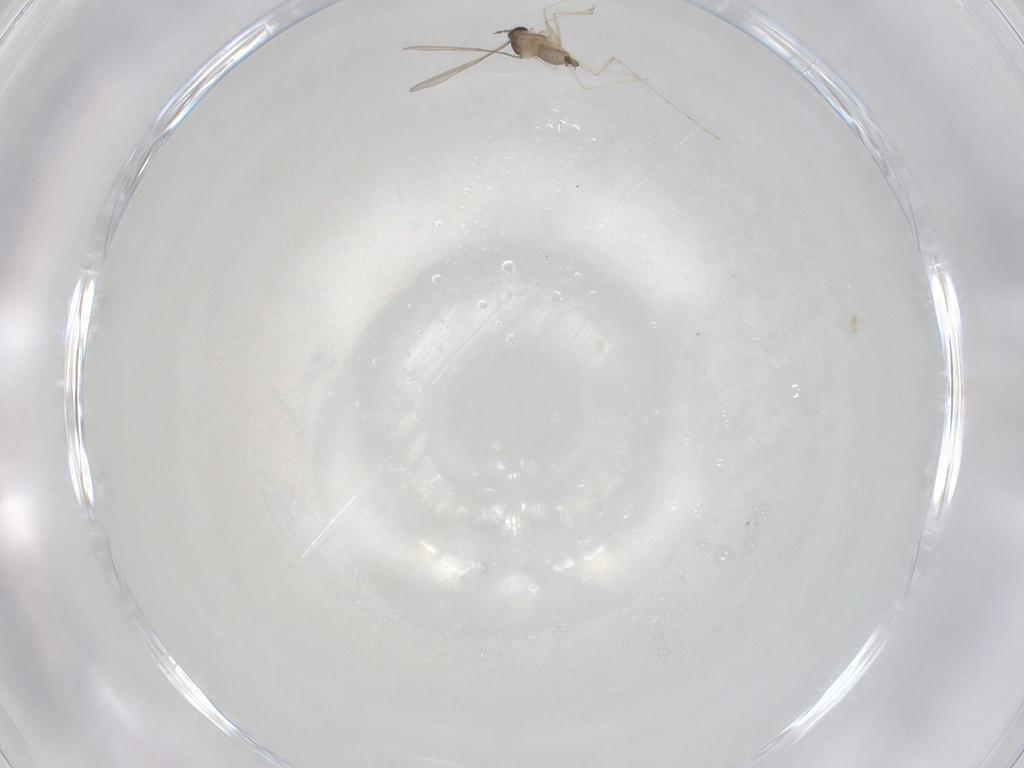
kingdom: Animalia
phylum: Arthropoda
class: Insecta
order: Diptera
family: Cecidomyiidae
